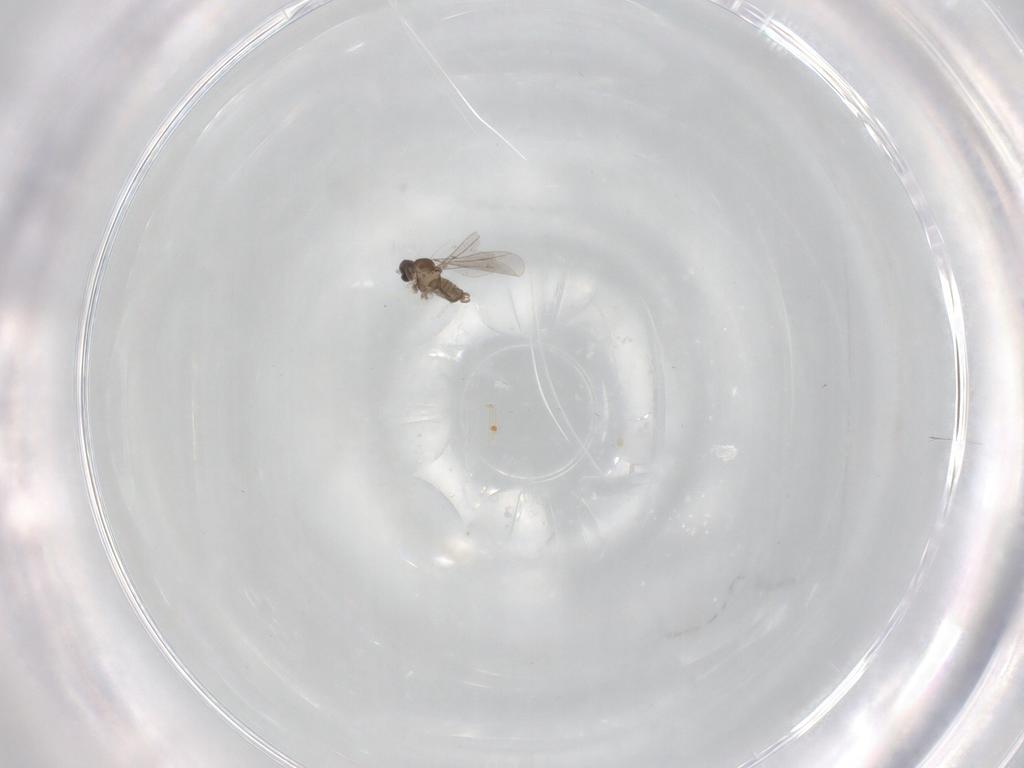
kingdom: Animalia
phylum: Arthropoda
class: Insecta
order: Diptera
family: Cecidomyiidae
